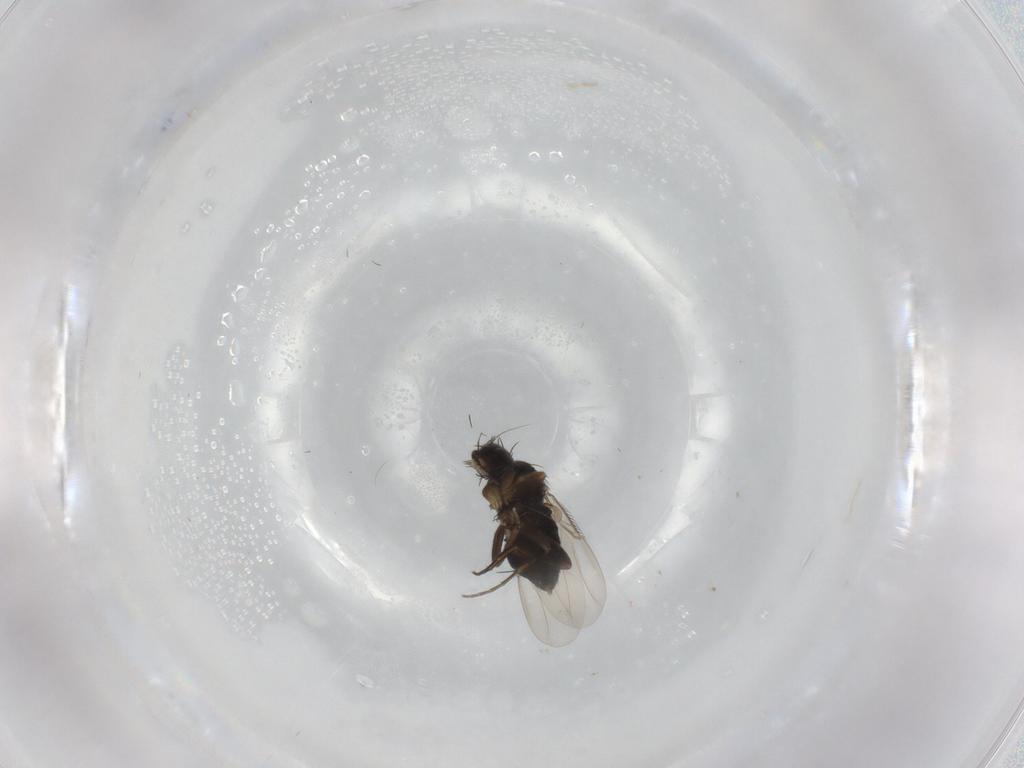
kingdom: Animalia
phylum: Arthropoda
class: Insecta
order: Diptera
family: Phoridae
